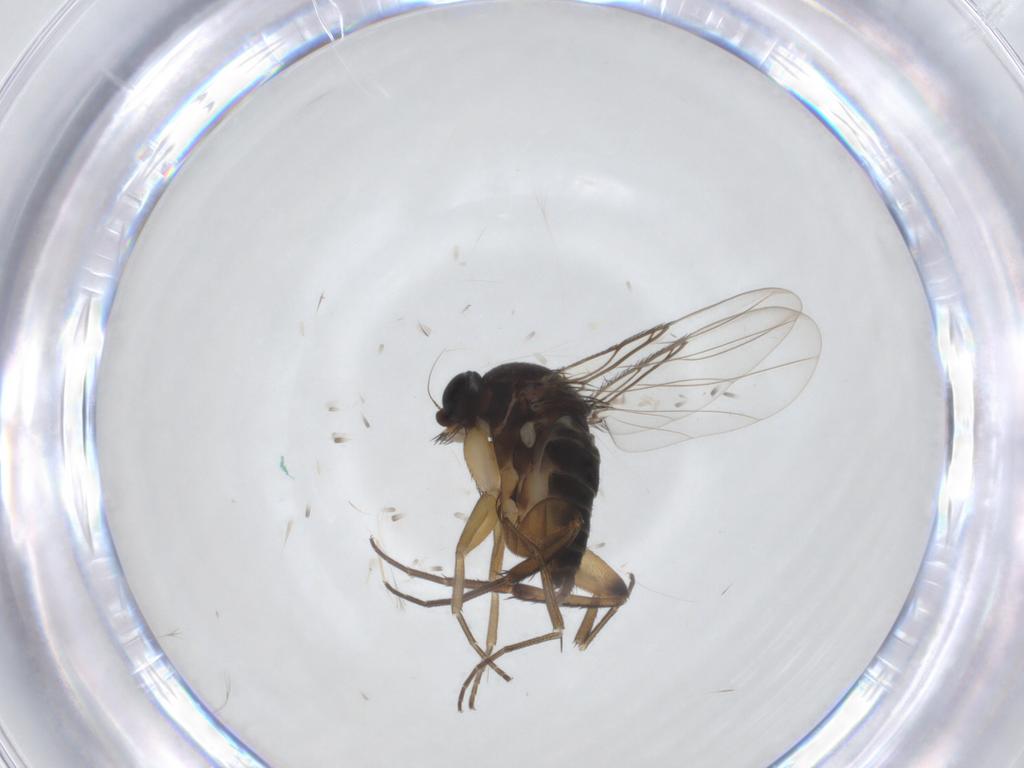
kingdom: Animalia
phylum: Arthropoda
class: Insecta
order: Diptera
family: Phoridae
